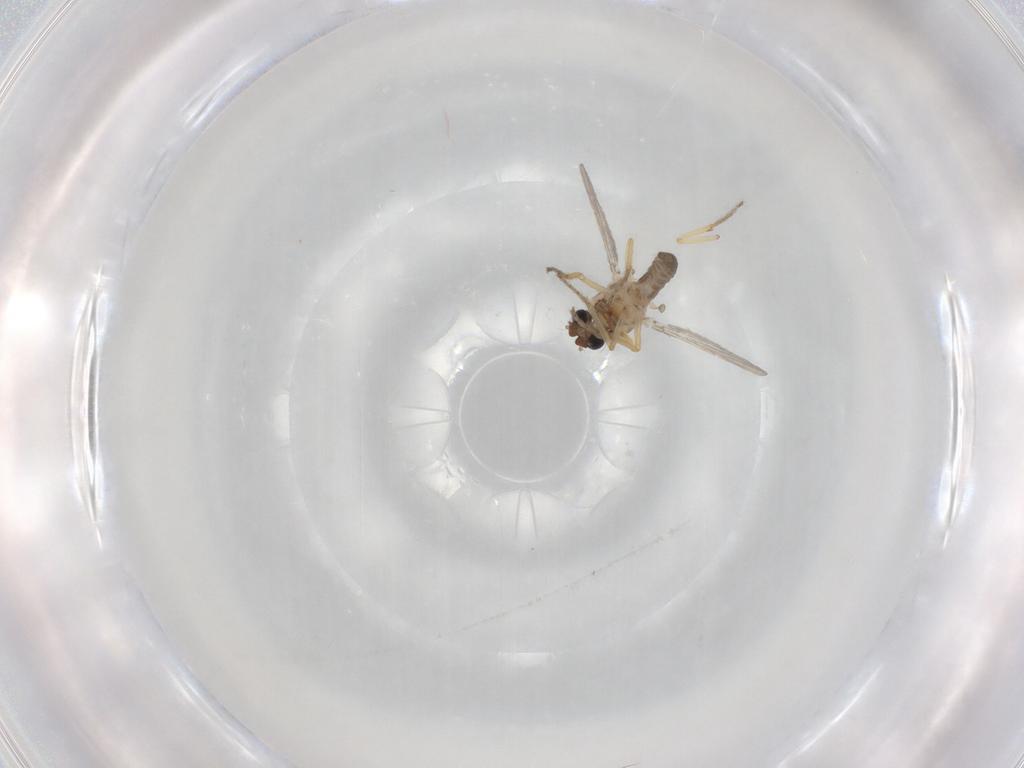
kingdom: Animalia
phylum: Arthropoda
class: Insecta
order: Diptera
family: Ceratopogonidae
